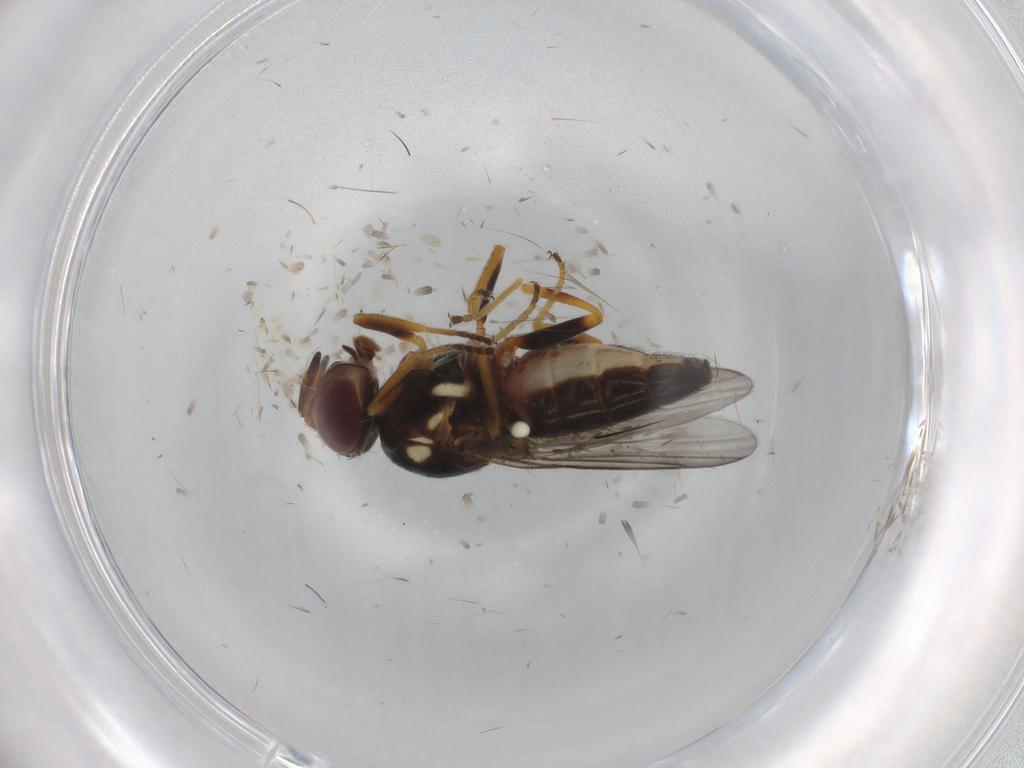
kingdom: Animalia
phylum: Arthropoda
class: Insecta
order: Diptera
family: Chloropidae
